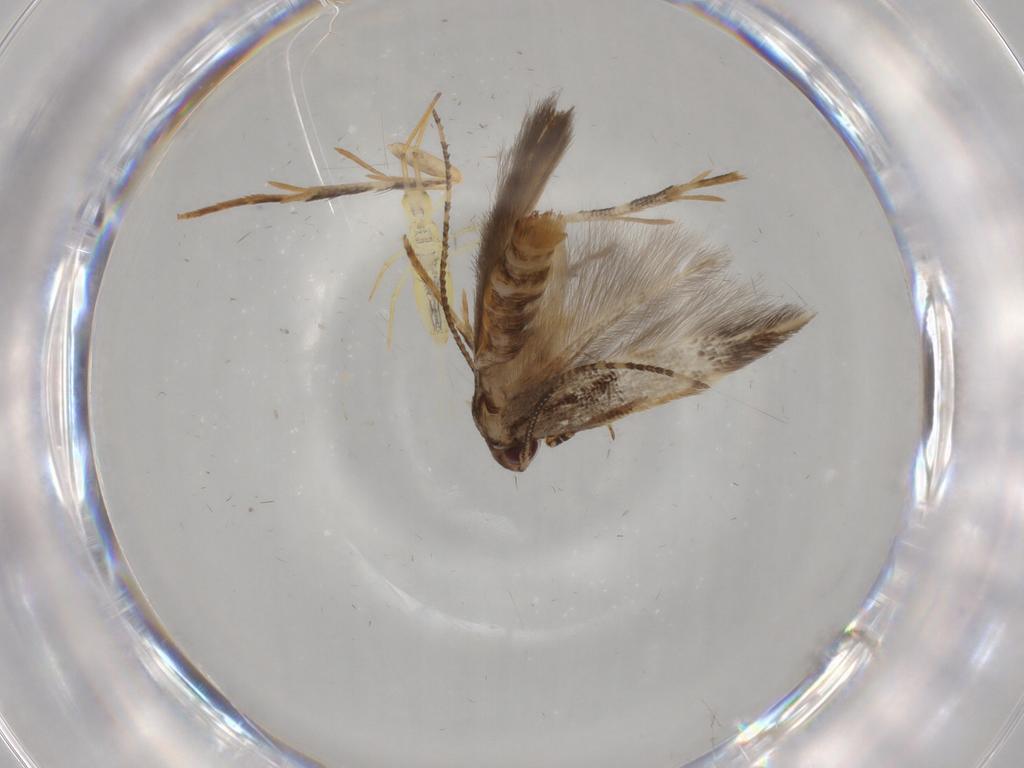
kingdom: Animalia
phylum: Arthropoda
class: Insecta
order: Lepidoptera
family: Cosmopterigidae
